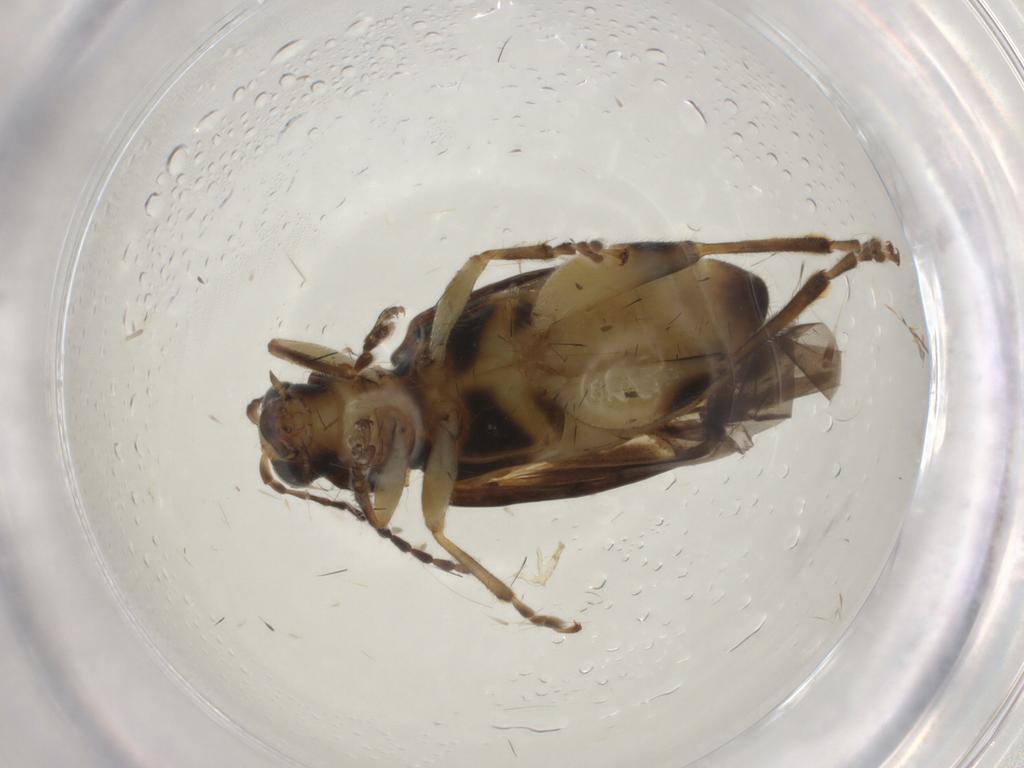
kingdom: Animalia
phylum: Arthropoda
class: Insecta
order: Coleoptera
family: Chrysomelidae
